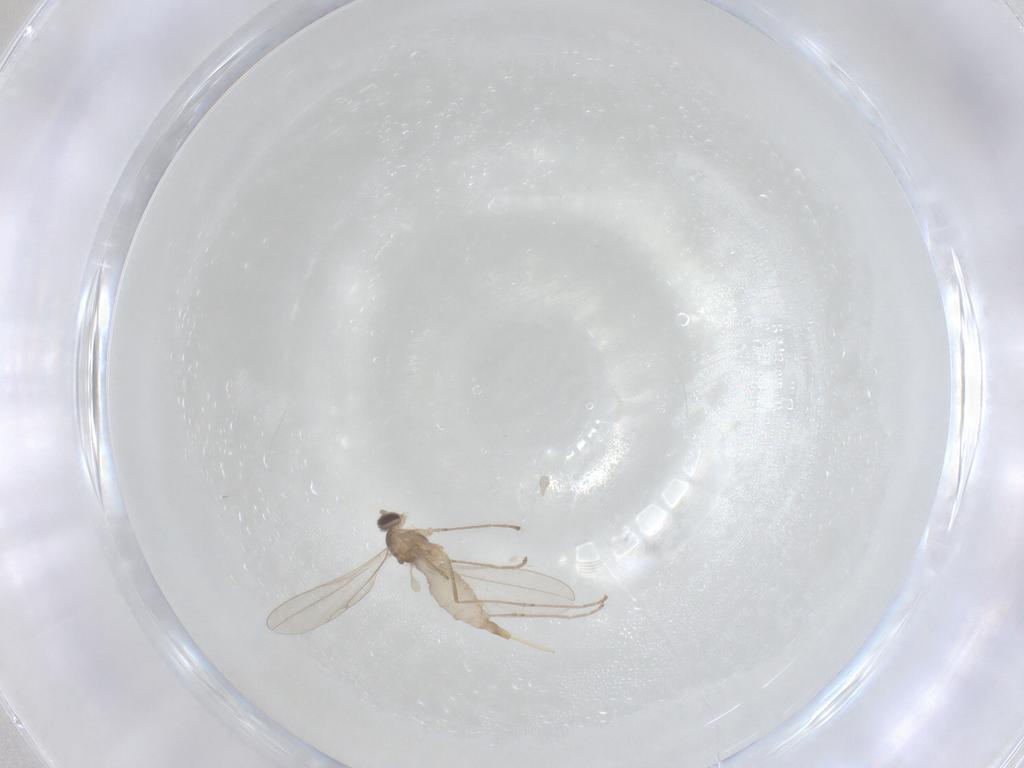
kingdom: Animalia
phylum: Arthropoda
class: Insecta
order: Diptera
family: Cecidomyiidae
